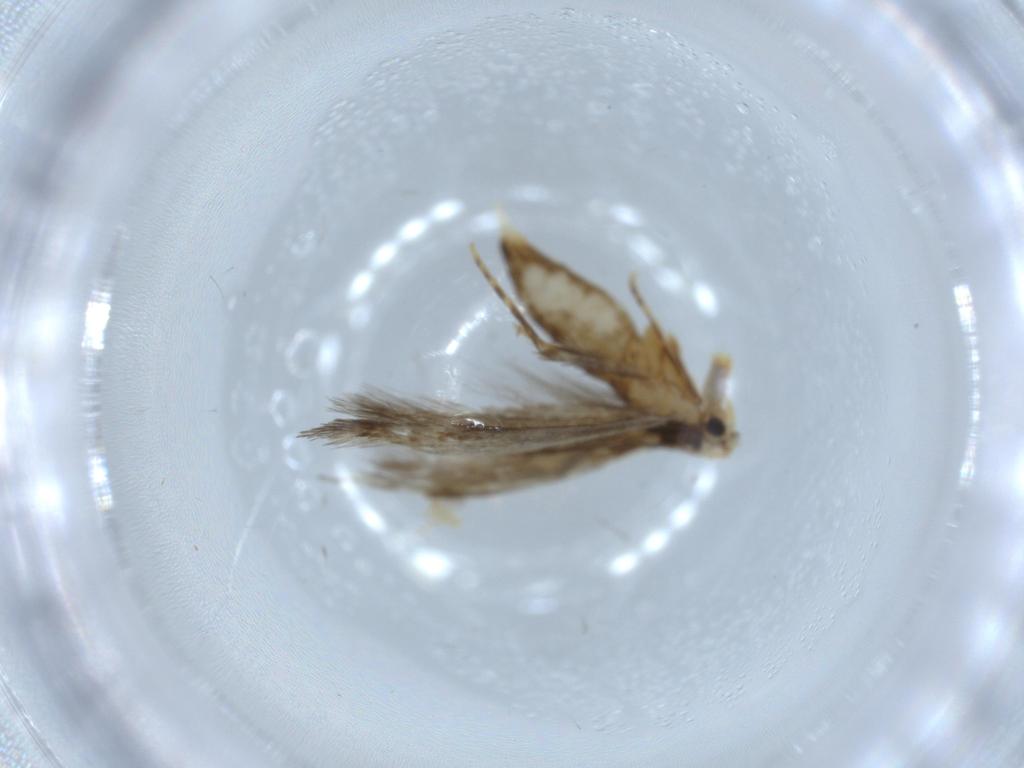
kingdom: Animalia
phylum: Arthropoda
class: Insecta
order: Lepidoptera
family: Tineidae
